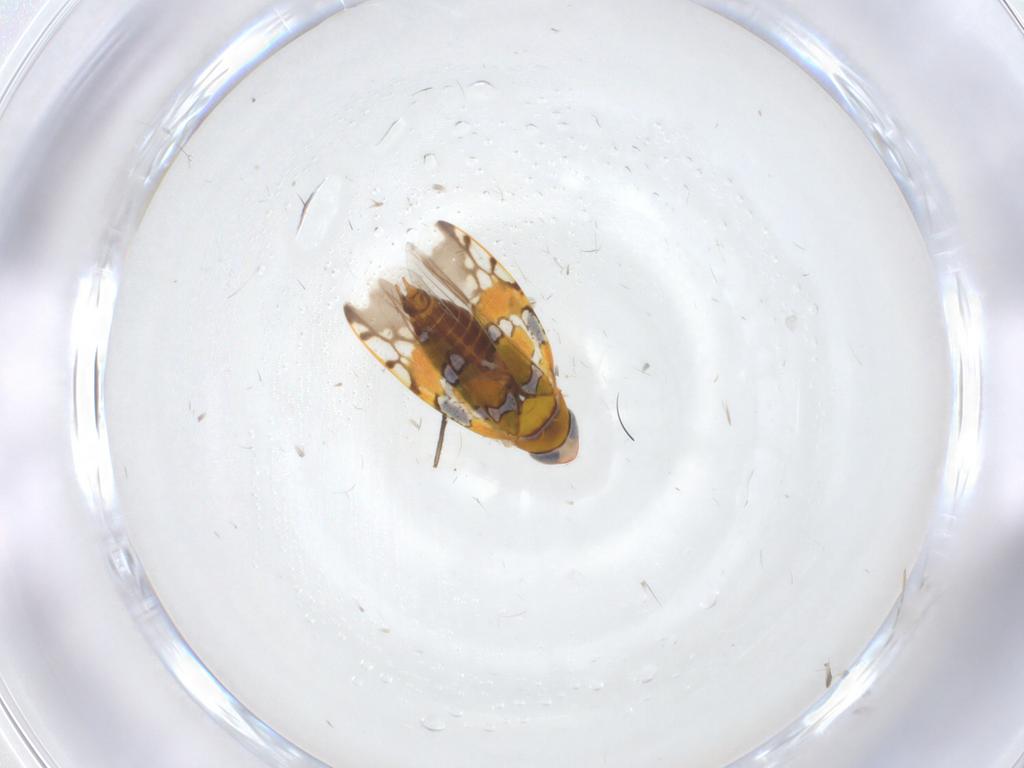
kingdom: Animalia
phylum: Arthropoda
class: Insecta
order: Hemiptera
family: Cicadellidae
